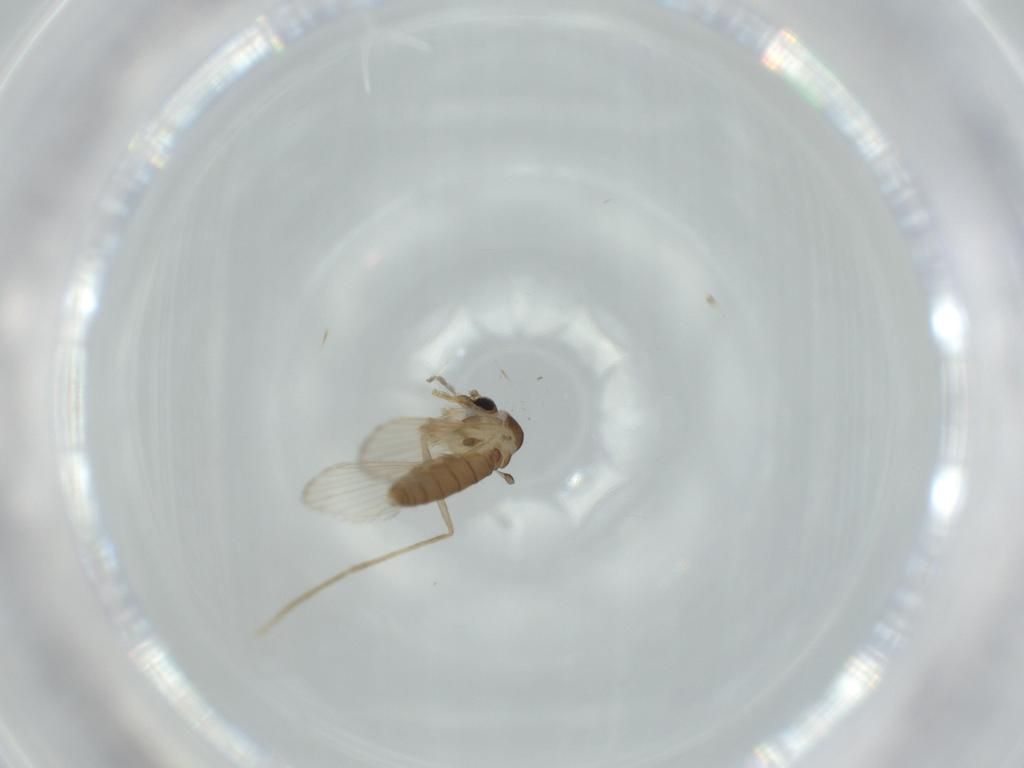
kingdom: Animalia
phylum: Arthropoda
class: Insecta
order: Diptera
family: Psychodidae
